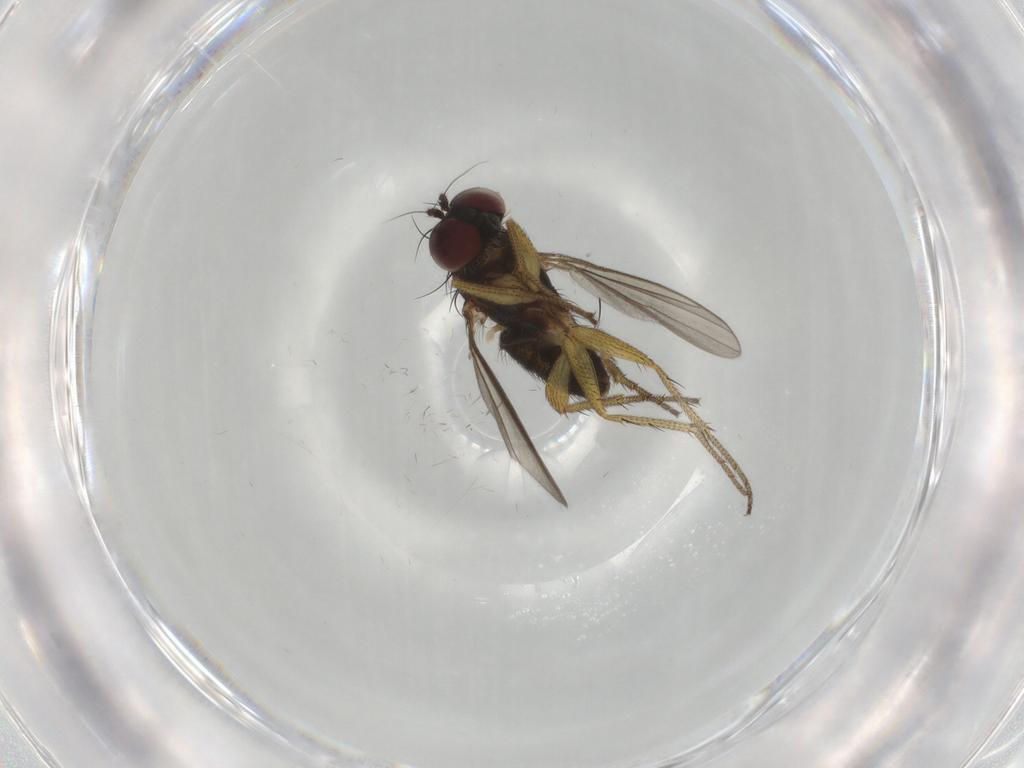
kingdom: Animalia
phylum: Arthropoda
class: Insecta
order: Diptera
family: Dolichopodidae
